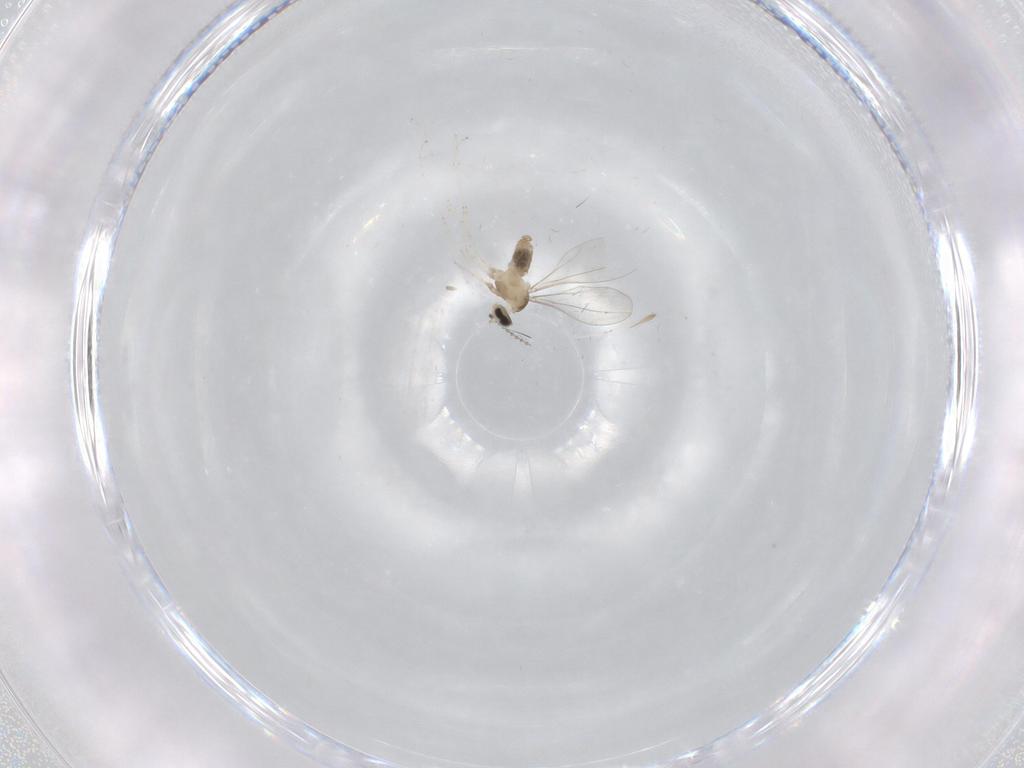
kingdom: Animalia
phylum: Arthropoda
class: Insecta
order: Diptera
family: Cecidomyiidae
